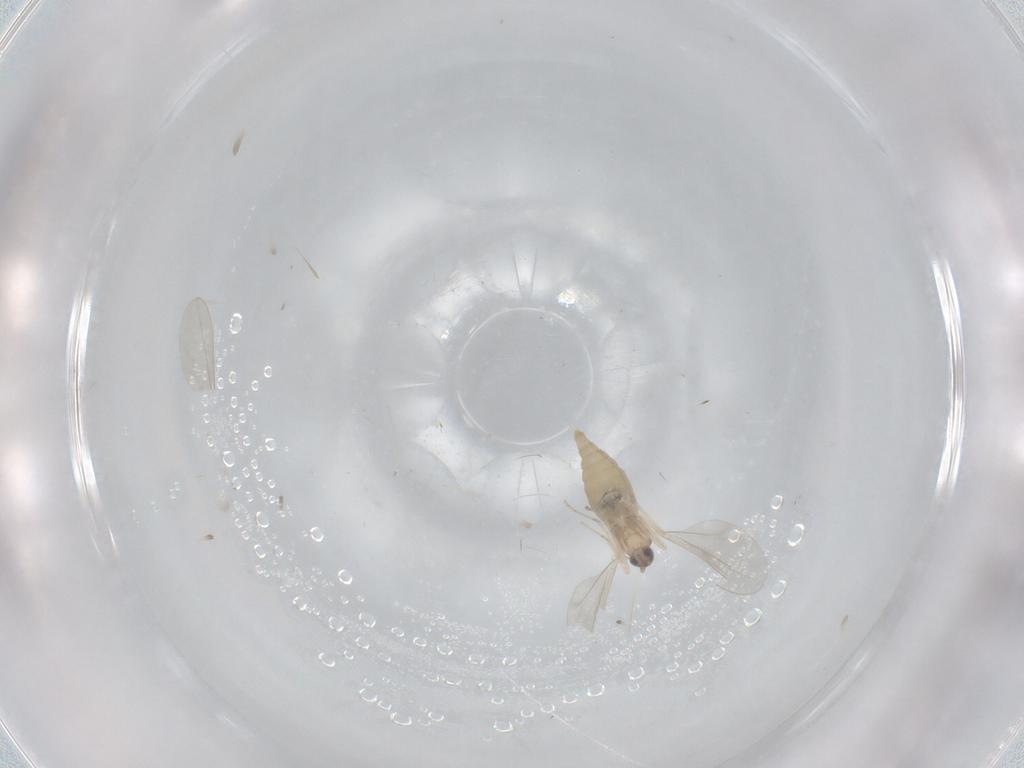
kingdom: Animalia
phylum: Arthropoda
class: Insecta
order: Diptera
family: Cecidomyiidae
